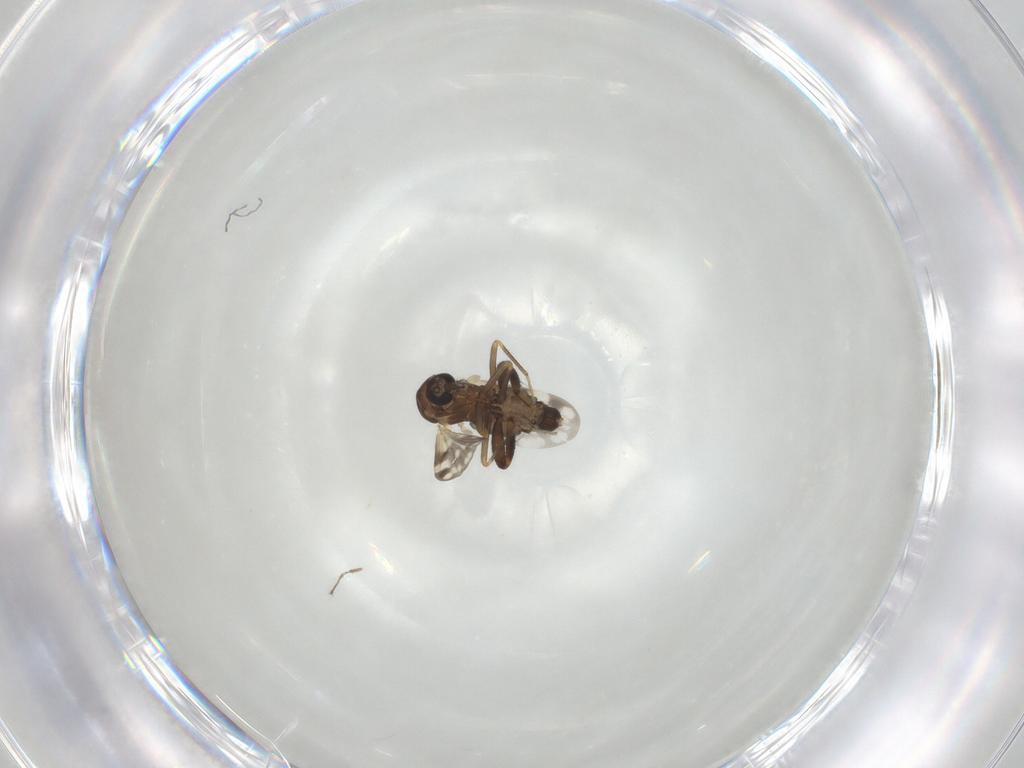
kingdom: Animalia
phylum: Arthropoda
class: Insecta
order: Diptera
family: Ceratopogonidae
